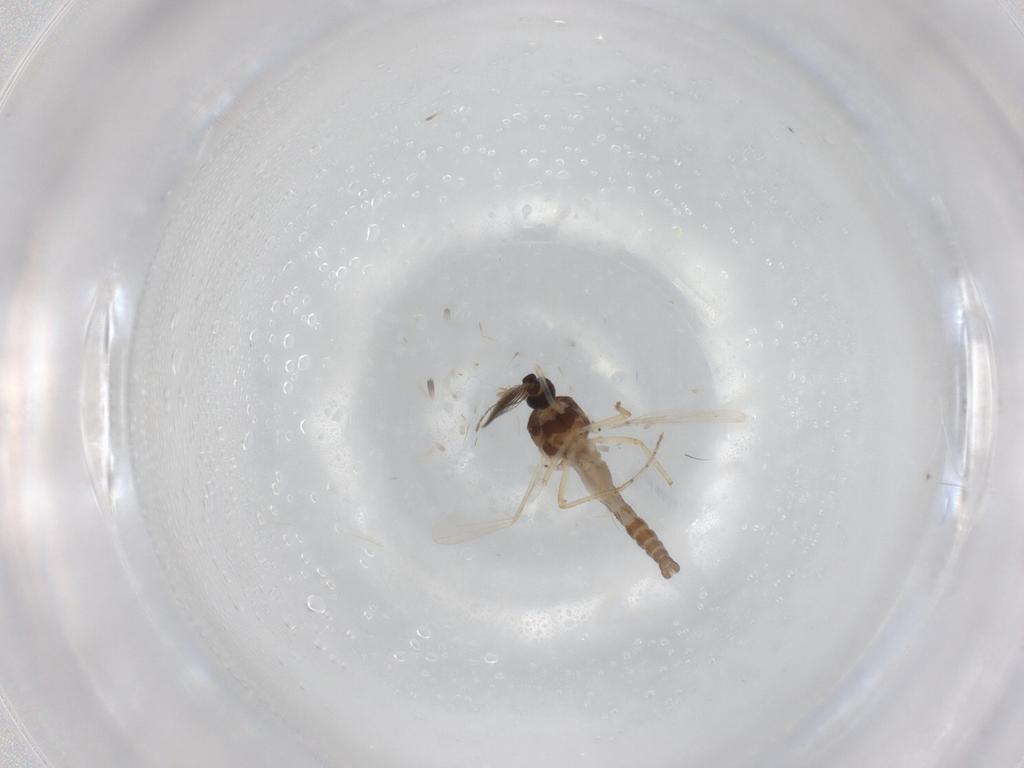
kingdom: Animalia
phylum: Arthropoda
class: Insecta
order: Diptera
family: Ceratopogonidae
